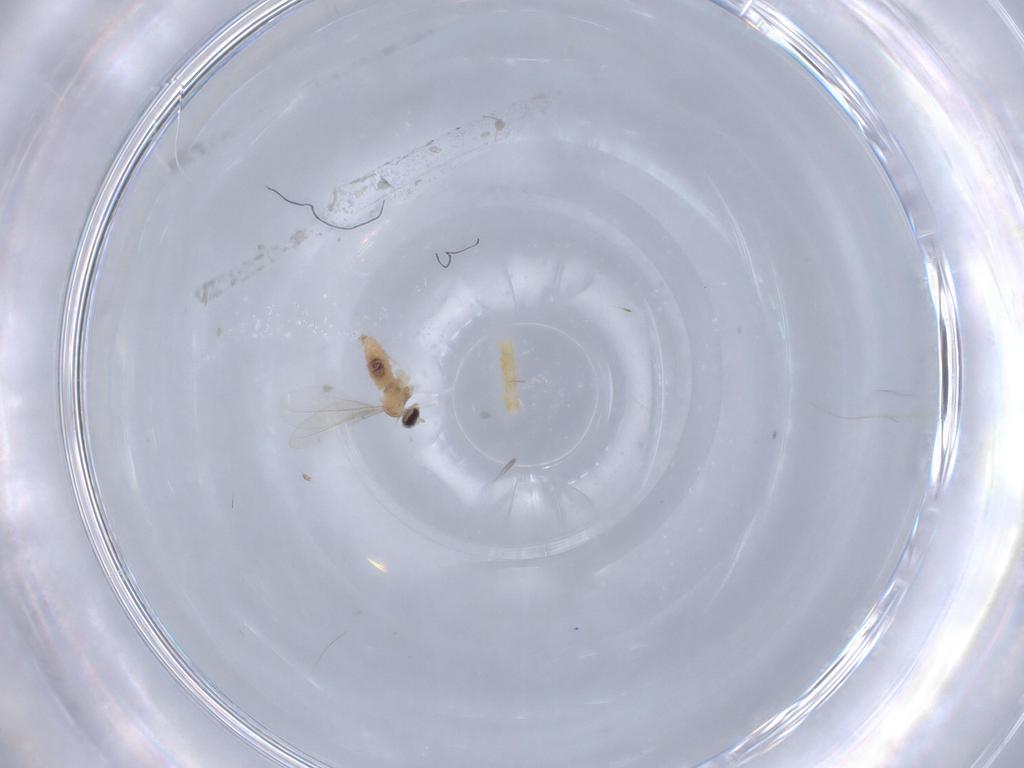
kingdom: Animalia
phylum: Arthropoda
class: Insecta
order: Diptera
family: Cecidomyiidae
